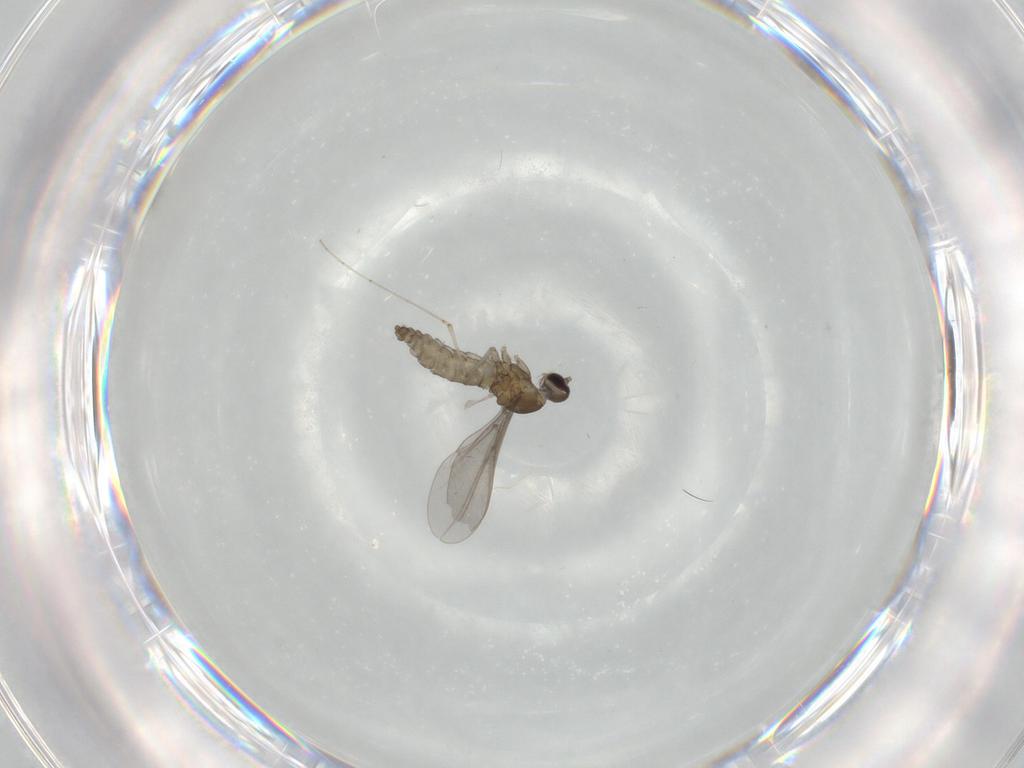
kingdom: Animalia
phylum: Arthropoda
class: Insecta
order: Diptera
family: Cecidomyiidae
